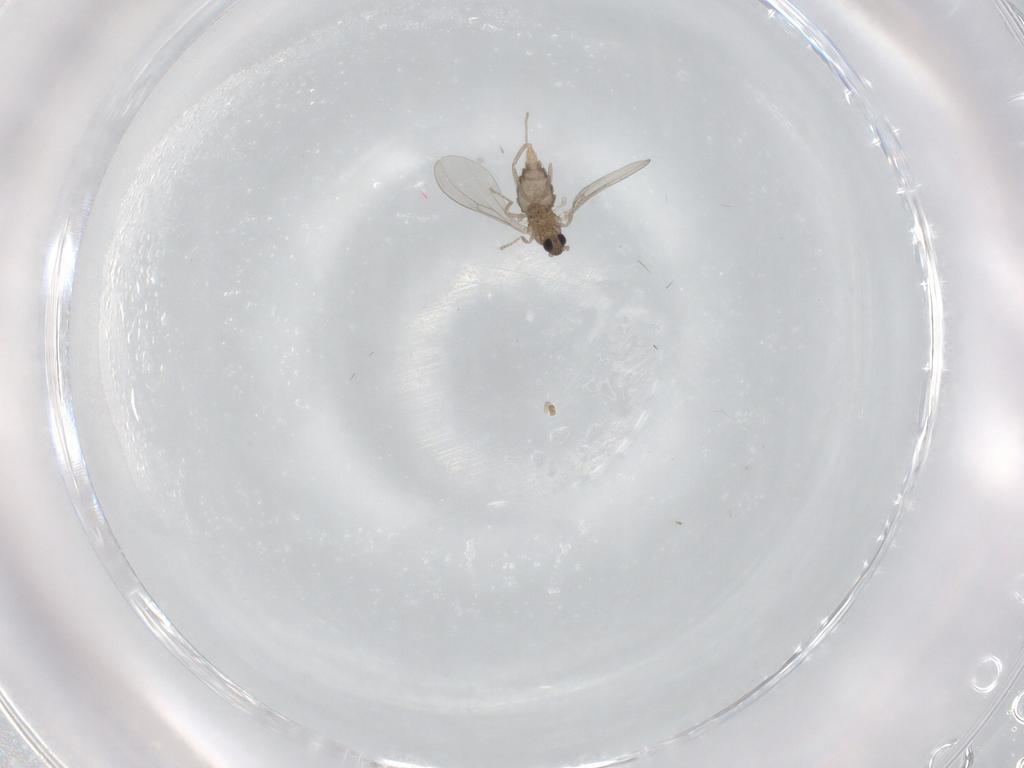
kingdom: Animalia
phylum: Arthropoda
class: Insecta
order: Diptera
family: Cecidomyiidae
